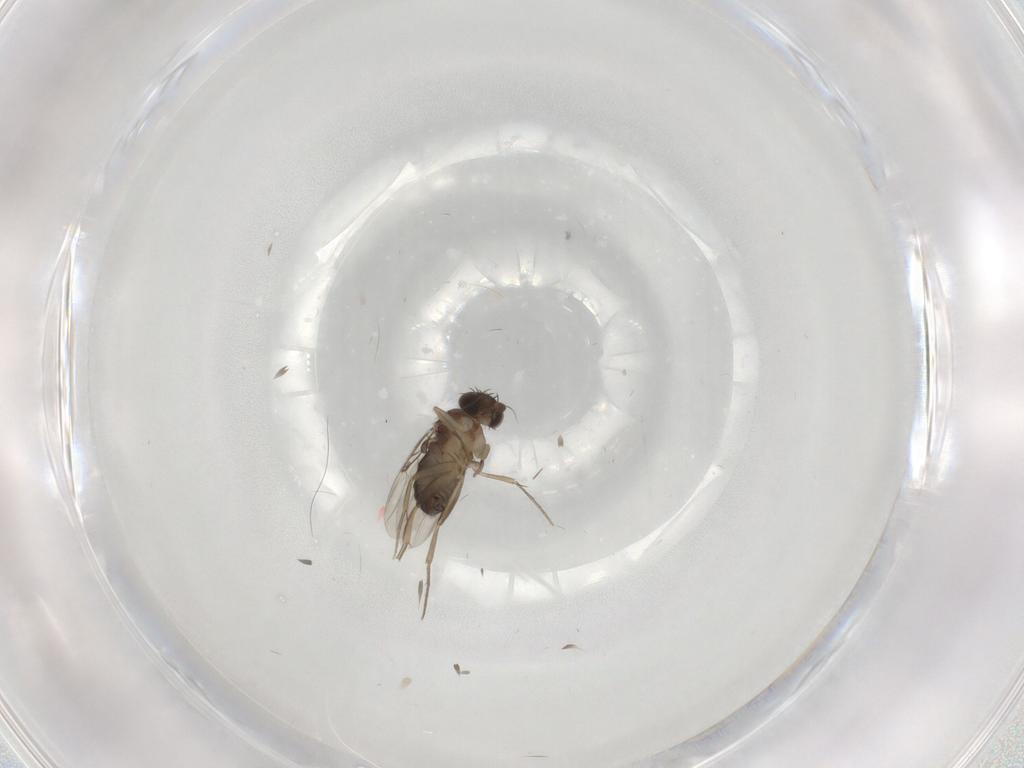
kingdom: Animalia
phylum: Arthropoda
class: Insecta
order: Diptera
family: Phoridae
